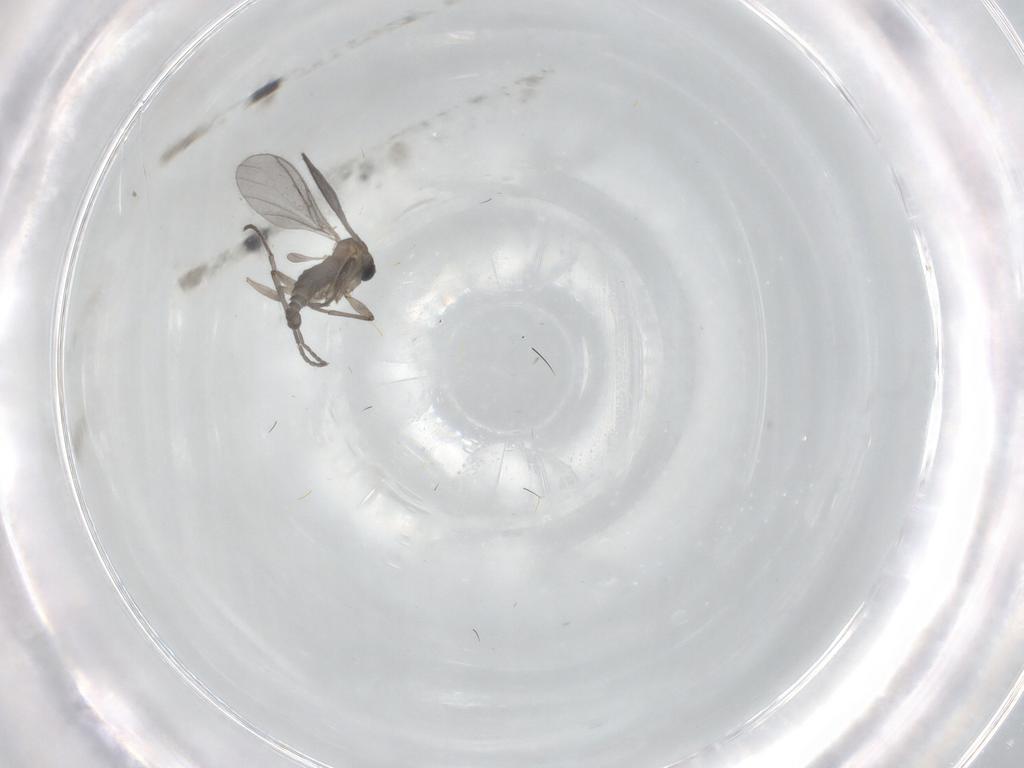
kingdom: Animalia
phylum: Arthropoda
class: Insecta
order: Diptera
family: Sciaridae
